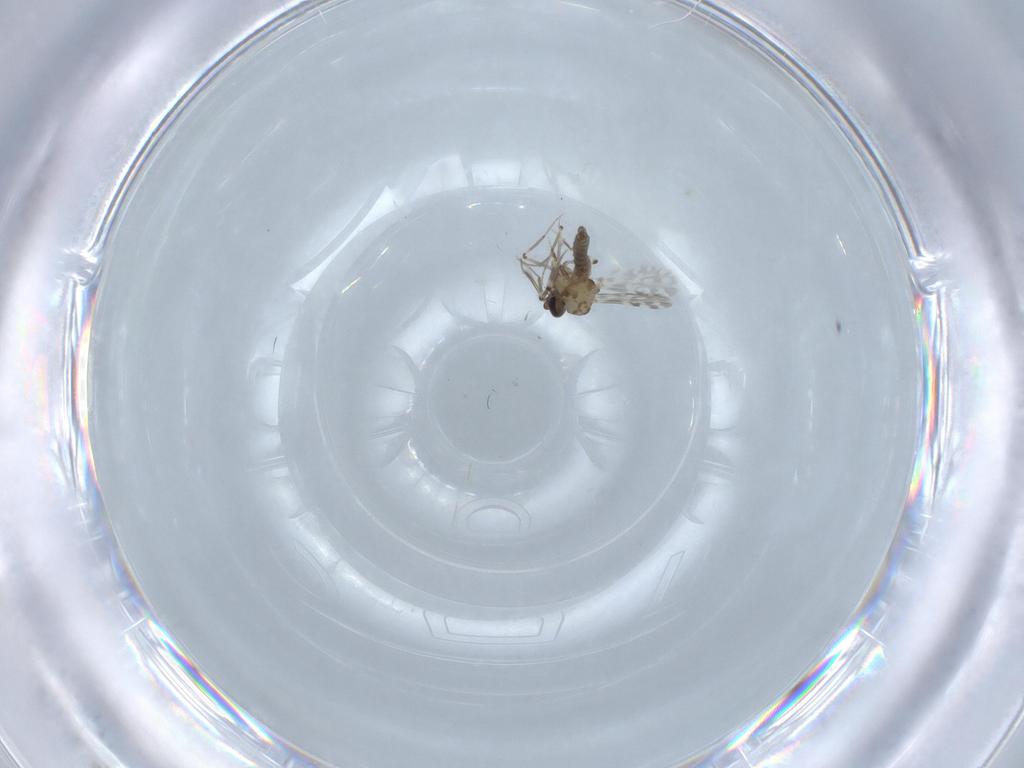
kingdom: Animalia
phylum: Arthropoda
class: Insecta
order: Diptera
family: Ceratopogonidae
